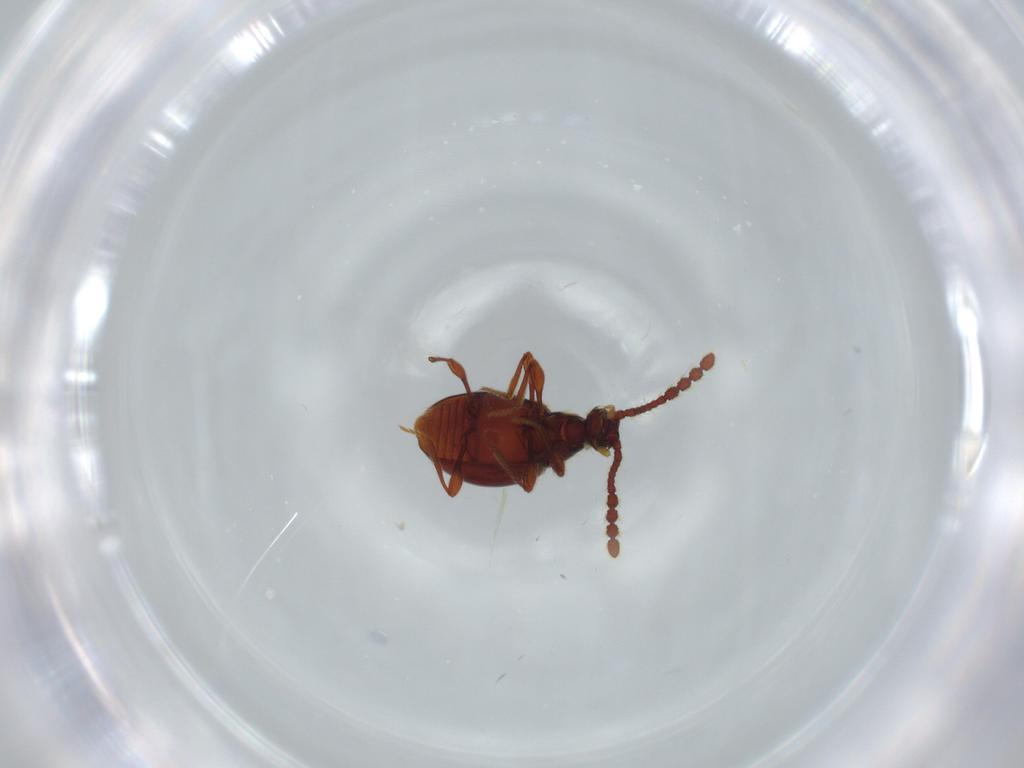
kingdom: Animalia
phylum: Arthropoda
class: Insecta
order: Coleoptera
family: Staphylinidae
